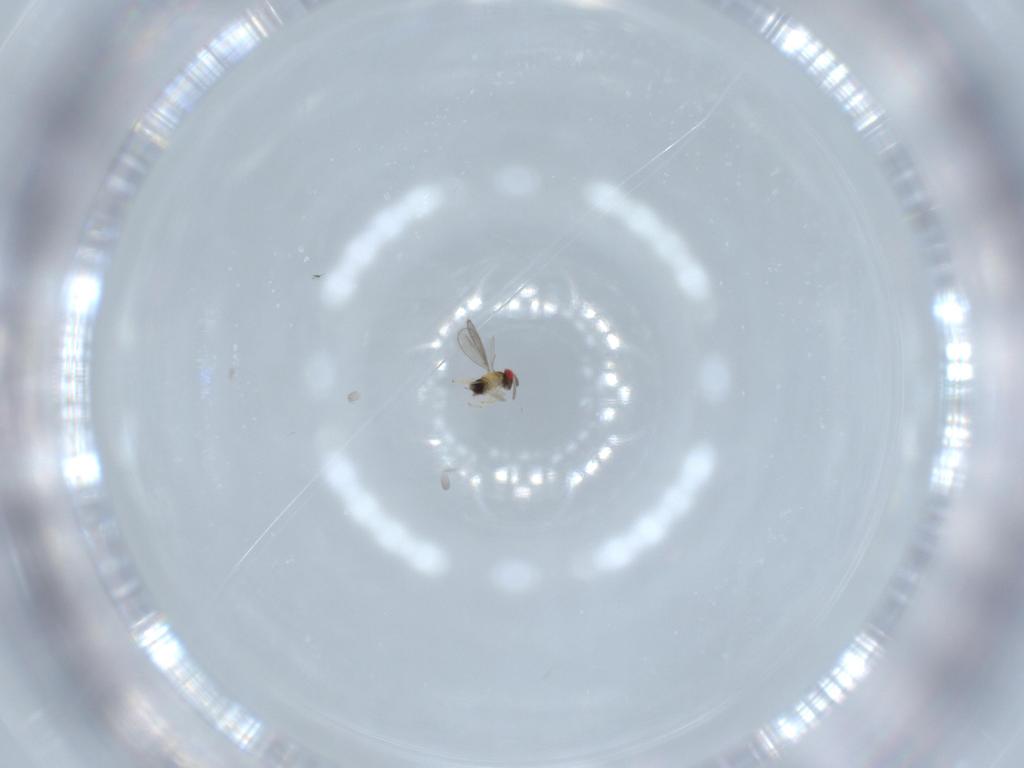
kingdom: Animalia
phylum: Arthropoda
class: Insecta
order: Hymenoptera
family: Aphelinidae
